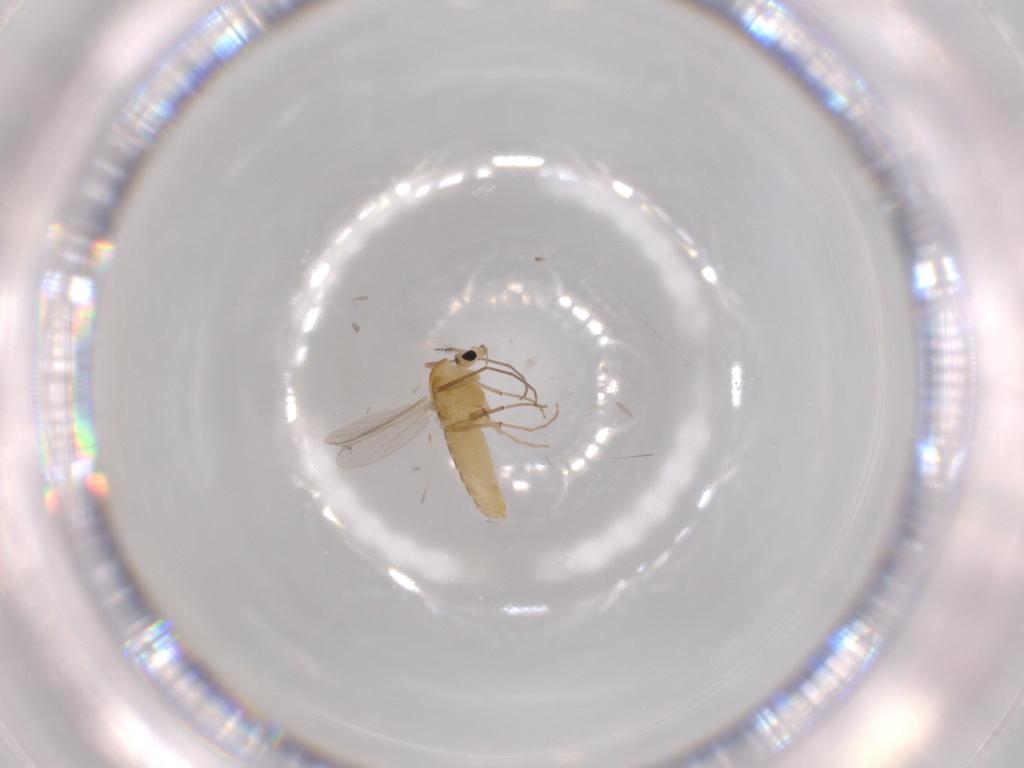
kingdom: Animalia
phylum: Arthropoda
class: Insecta
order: Diptera
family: Chironomidae
